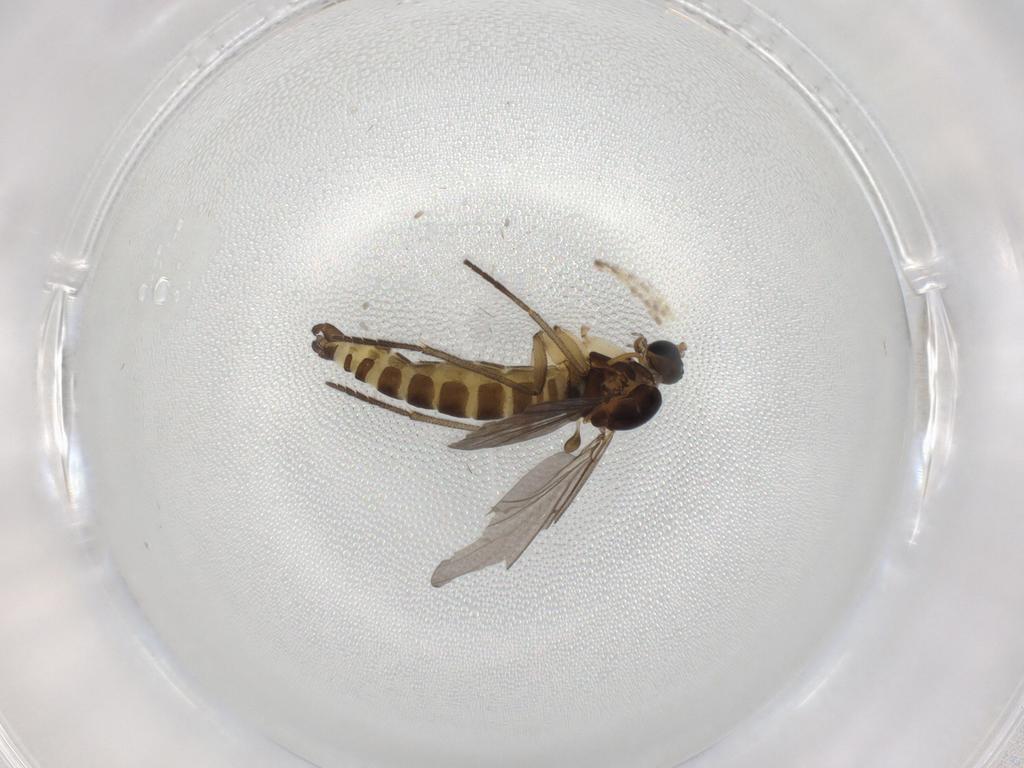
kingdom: Animalia
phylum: Arthropoda
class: Insecta
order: Diptera
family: Sciaridae
